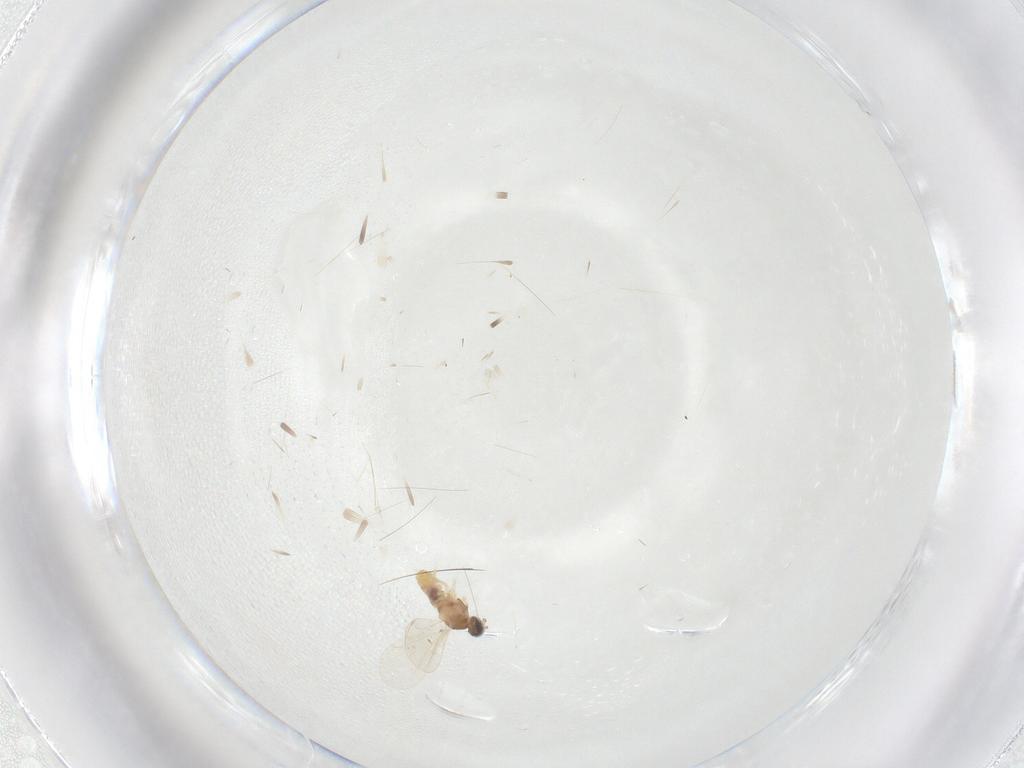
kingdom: Animalia
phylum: Arthropoda
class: Insecta
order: Diptera
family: Cecidomyiidae
